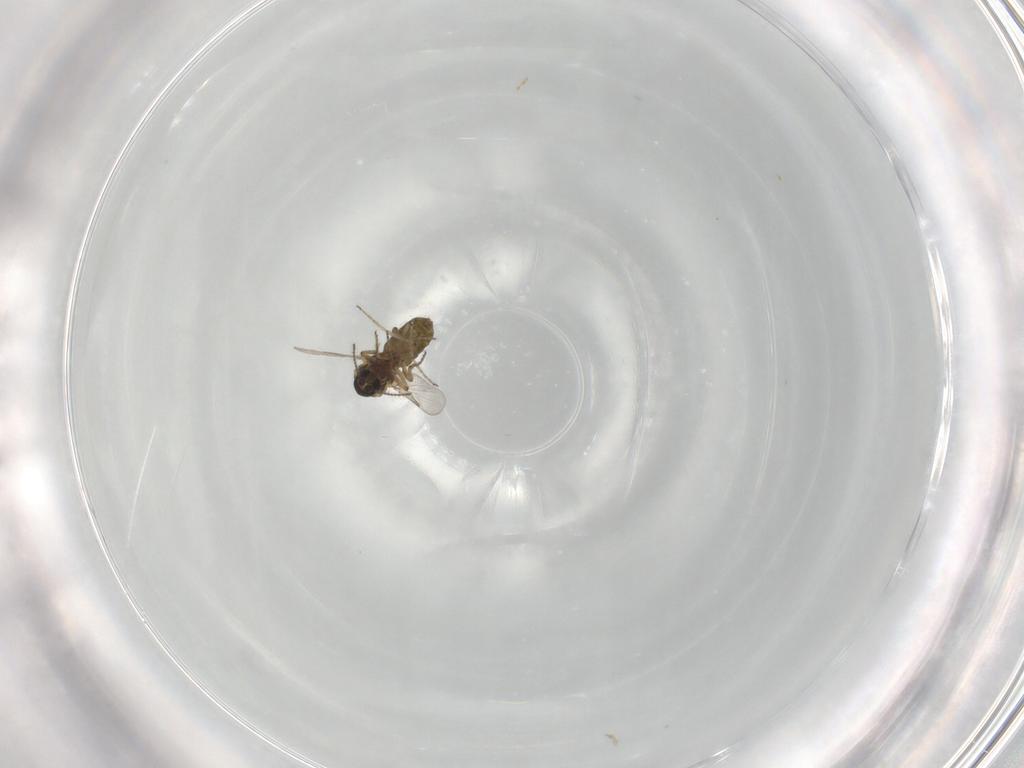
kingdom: Animalia
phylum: Arthropoda
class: Insecta
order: Diptera
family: Ceratopogonidae
